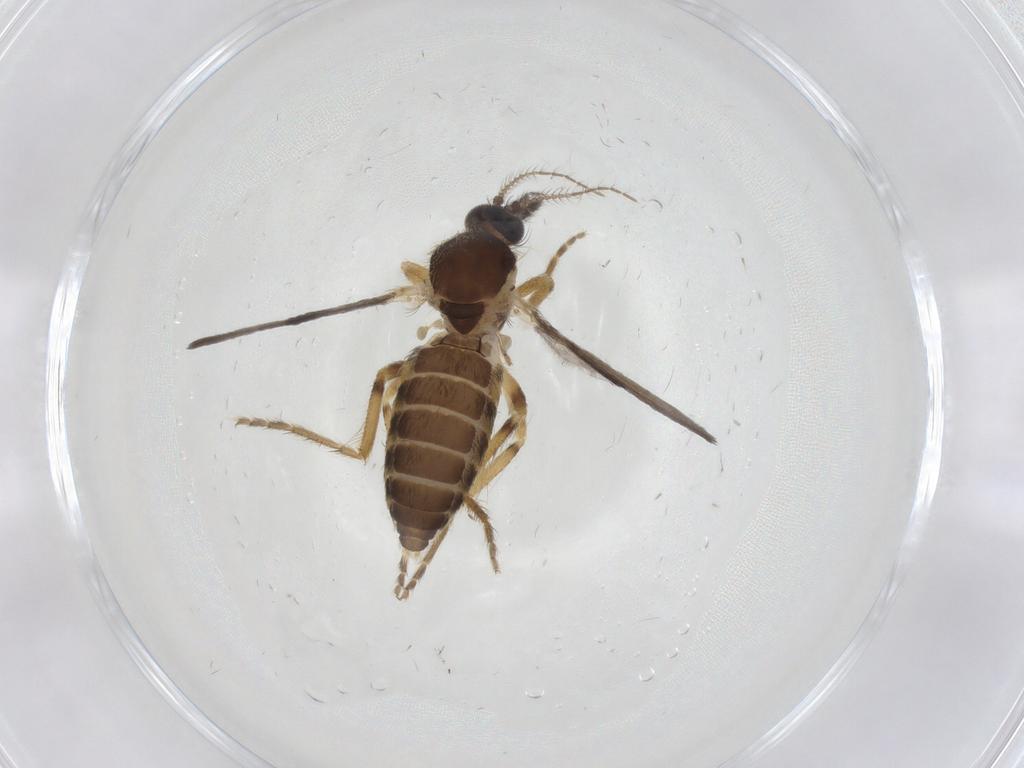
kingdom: Animalia
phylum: Arthropoda
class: Insecta
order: Diptera
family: Ceratopogonidae
